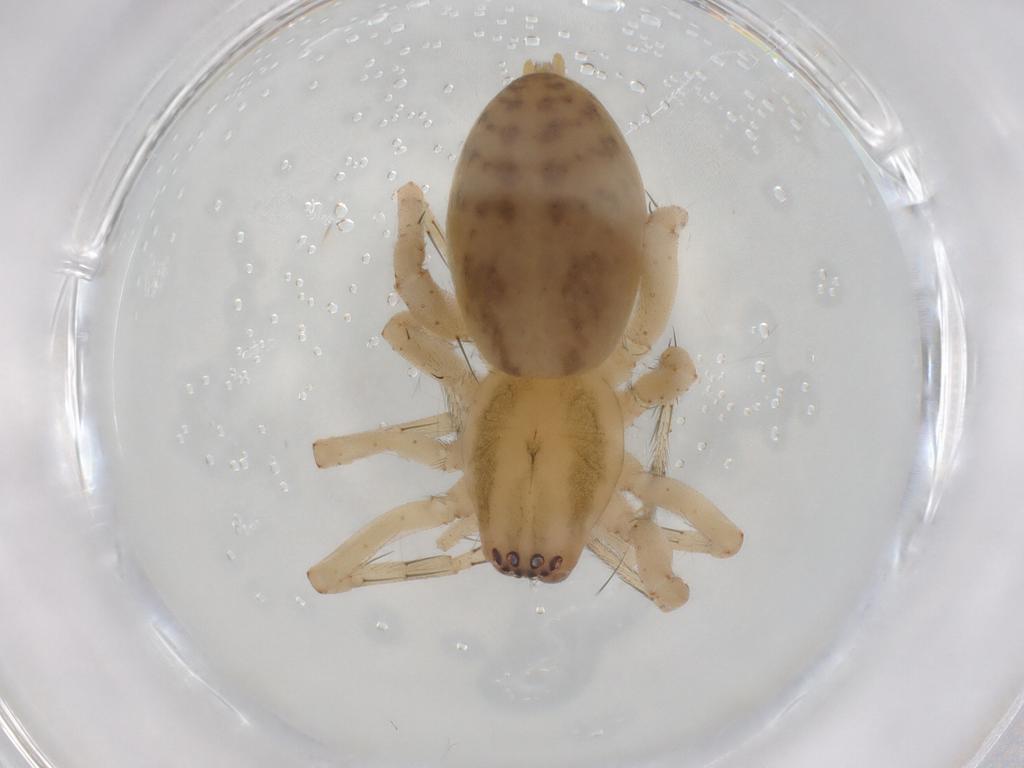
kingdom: Animalia
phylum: Arthropoda
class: Arachnida
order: Araneae
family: Anyphaenidae
